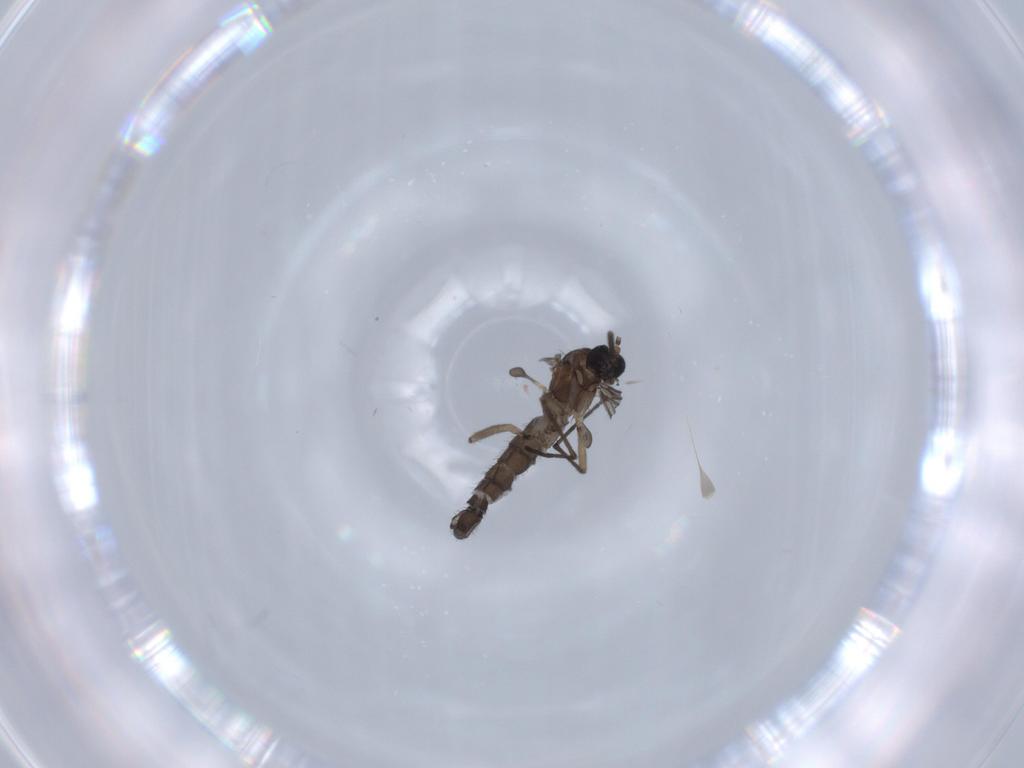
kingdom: Animalia
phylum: Arthropoda
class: Insecta
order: Diptera
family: Sciaridae
